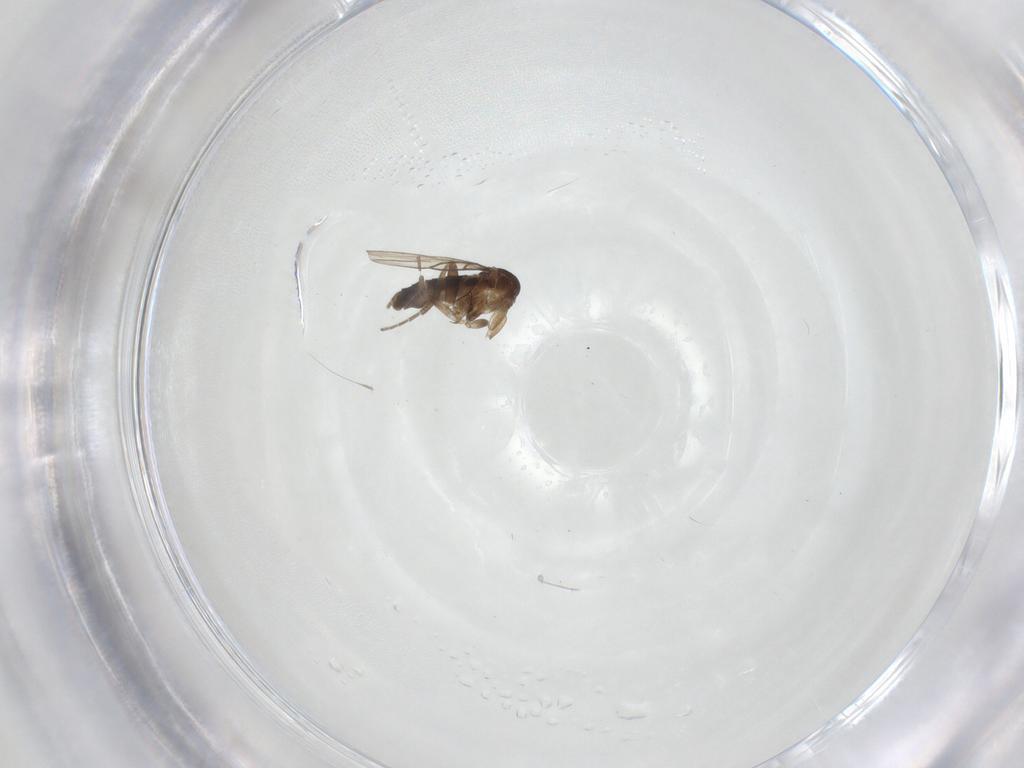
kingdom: Animalia
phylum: Arthropoda
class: Insecta
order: Diptera
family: Phoridae
